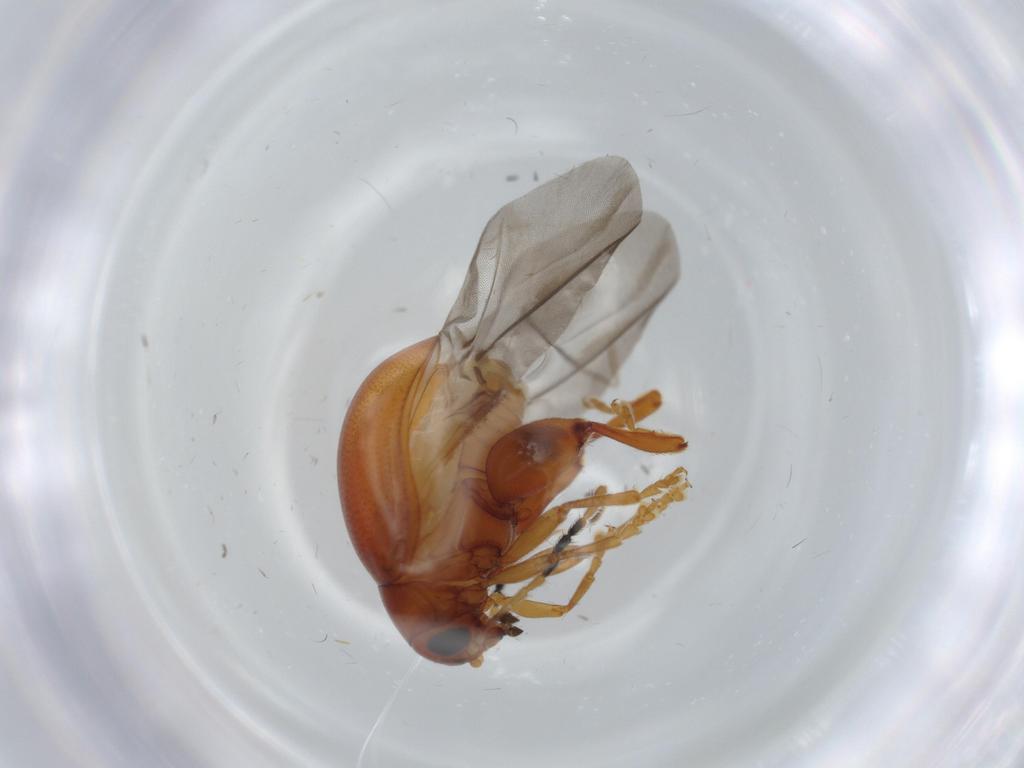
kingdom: Animalia
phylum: Arthropoda
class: Insecta
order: Coleoptera
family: Chrysomelidae
